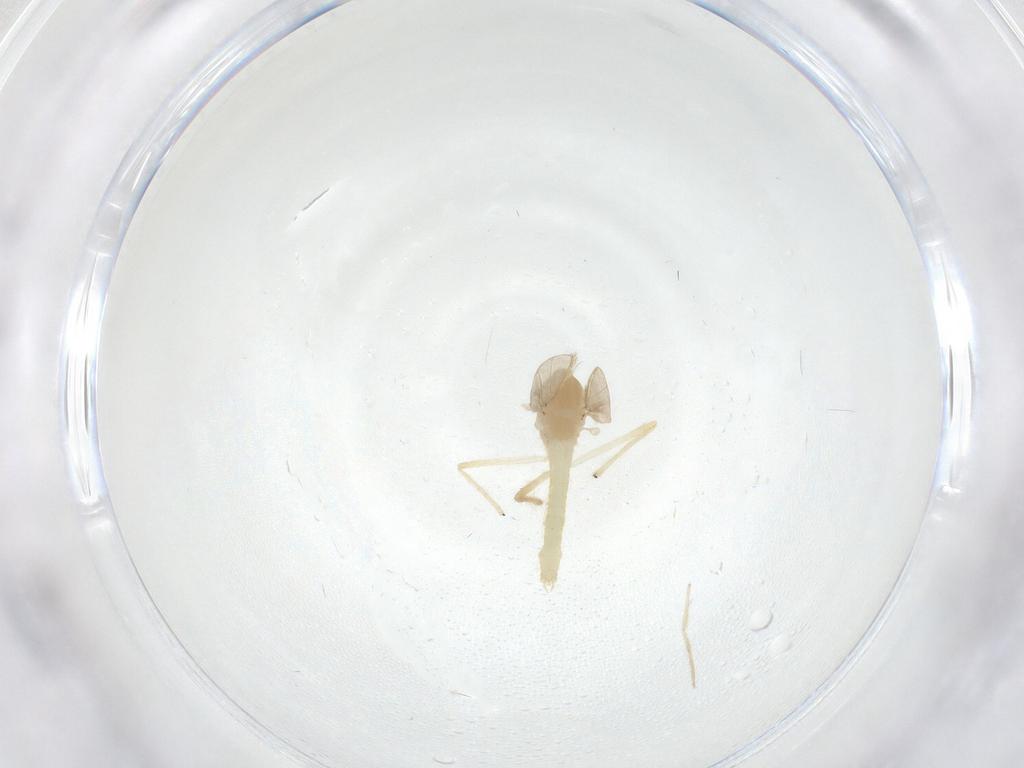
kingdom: Animalia
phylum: Arthropoda
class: Insecta
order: Diptera
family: Chironomidae
